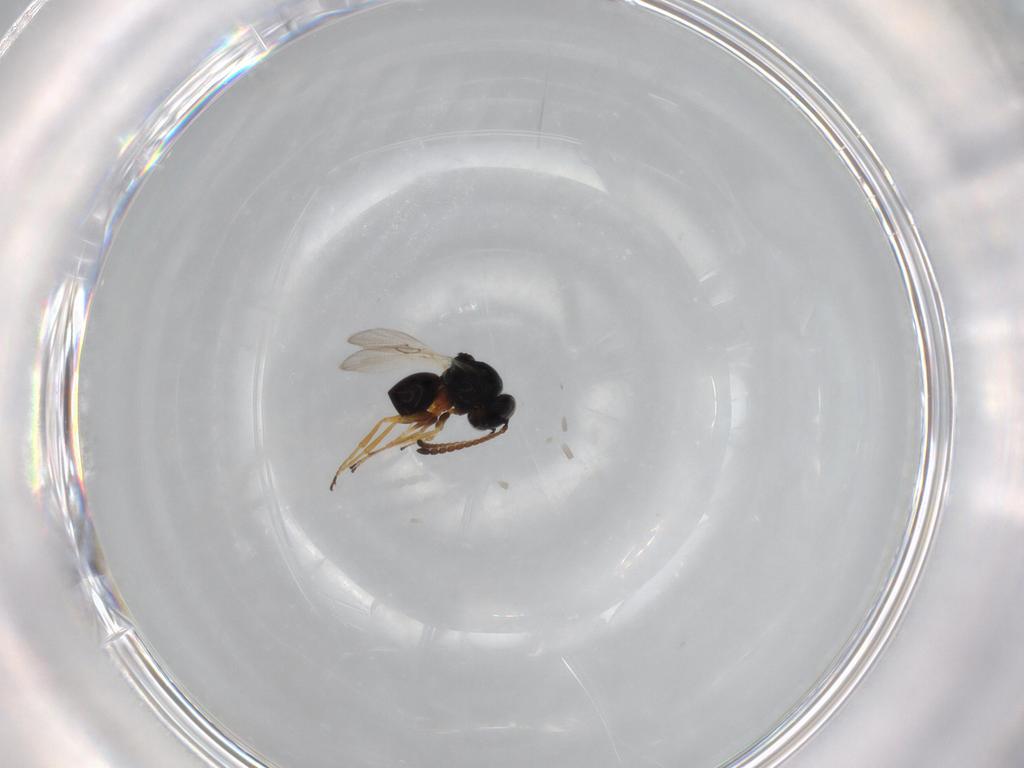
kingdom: Animalia
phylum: Arthropoda
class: Insecta
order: Hymenoptera
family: Figitidae
